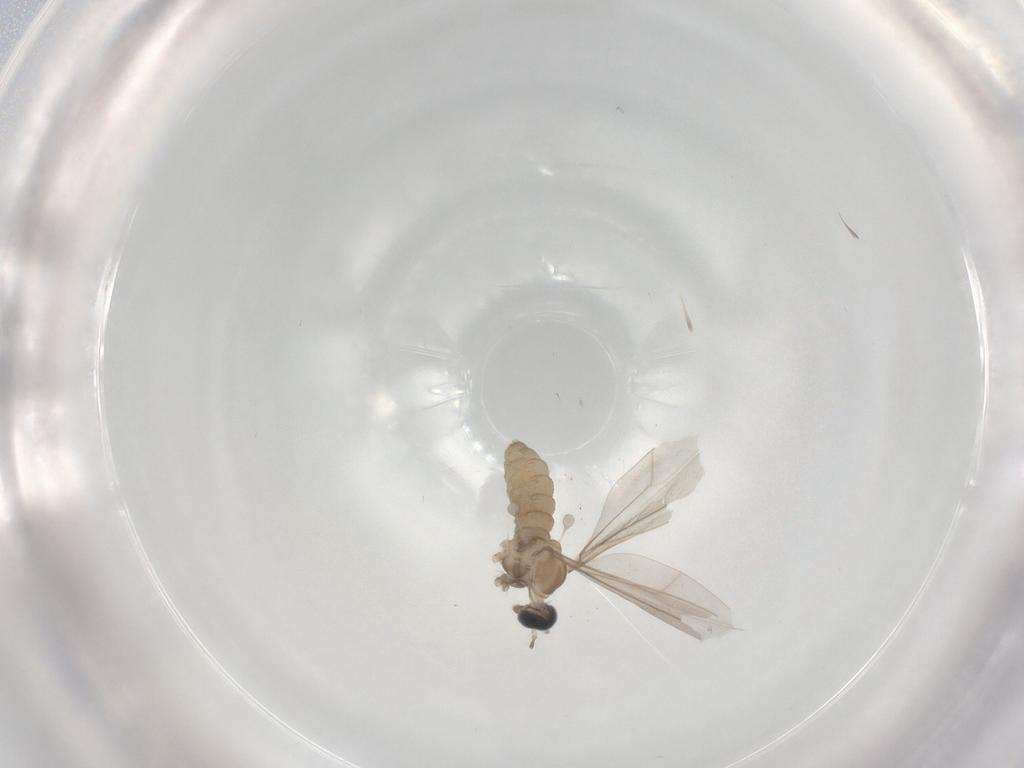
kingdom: Animalia
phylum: Arthropoda
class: Insecta
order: Diptera
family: Cecidomyiidae
